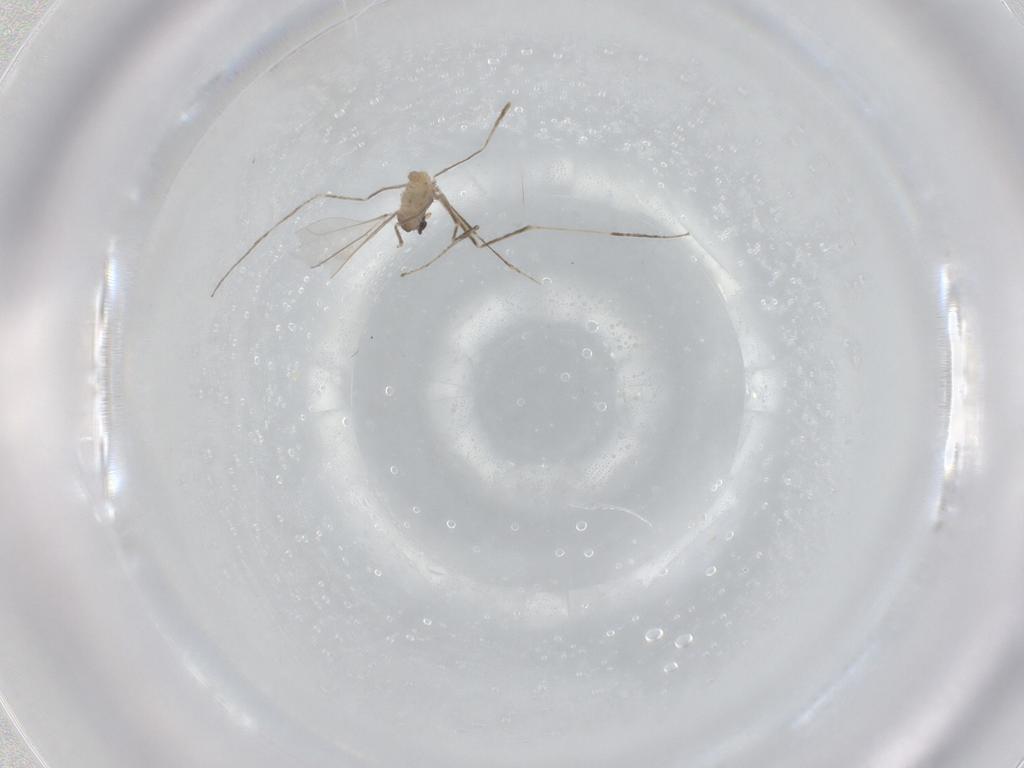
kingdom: Animalia
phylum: Arthropoda
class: Insecta
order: Diptera
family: Cecidomyiidae
